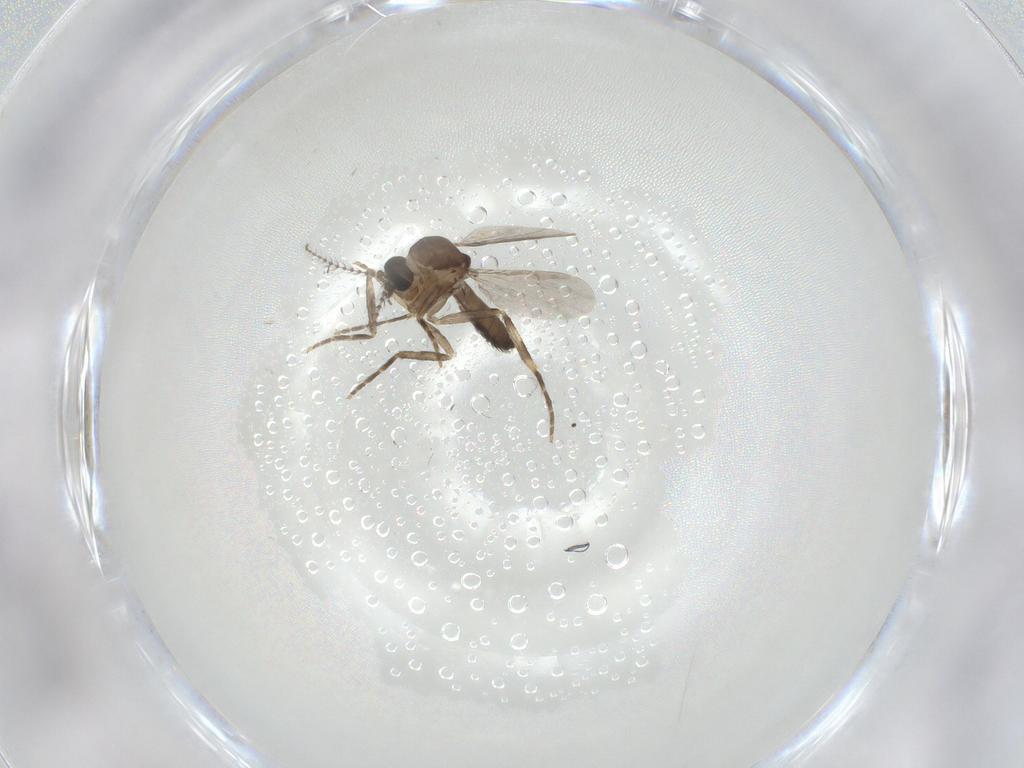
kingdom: Animalia
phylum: Arthropoda
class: Insecta
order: Diptera
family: Ceratopogonidae
